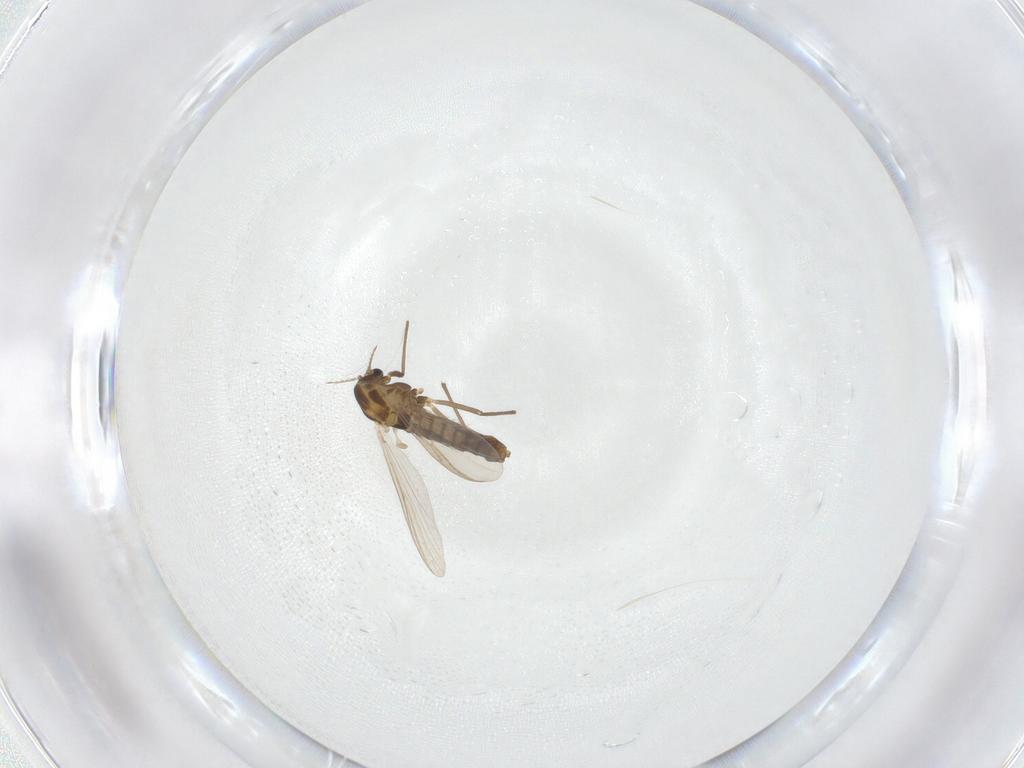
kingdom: Animalia
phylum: Arthropoda
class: Insecta
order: Diptera
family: Chironomidae
